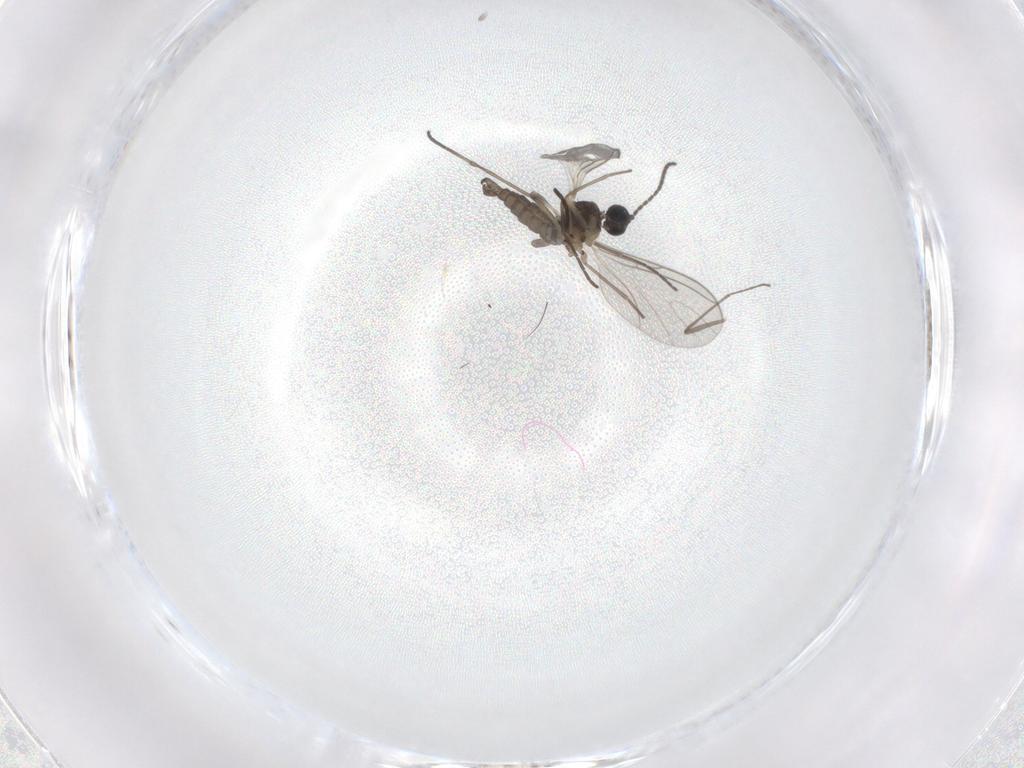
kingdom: Animalia
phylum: Arthropoda
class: Insecta
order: Diptera
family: Sciaridae
